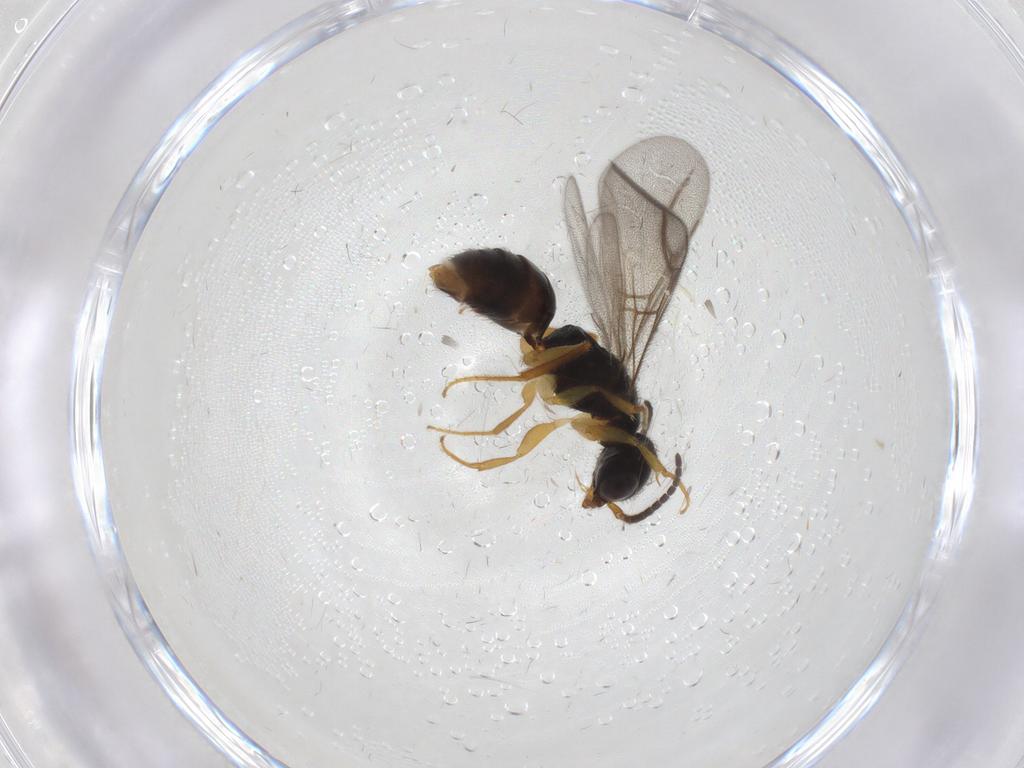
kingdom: Animalia
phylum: Arthropoda
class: Insecta
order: Hymenoptera
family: Bethylidae
